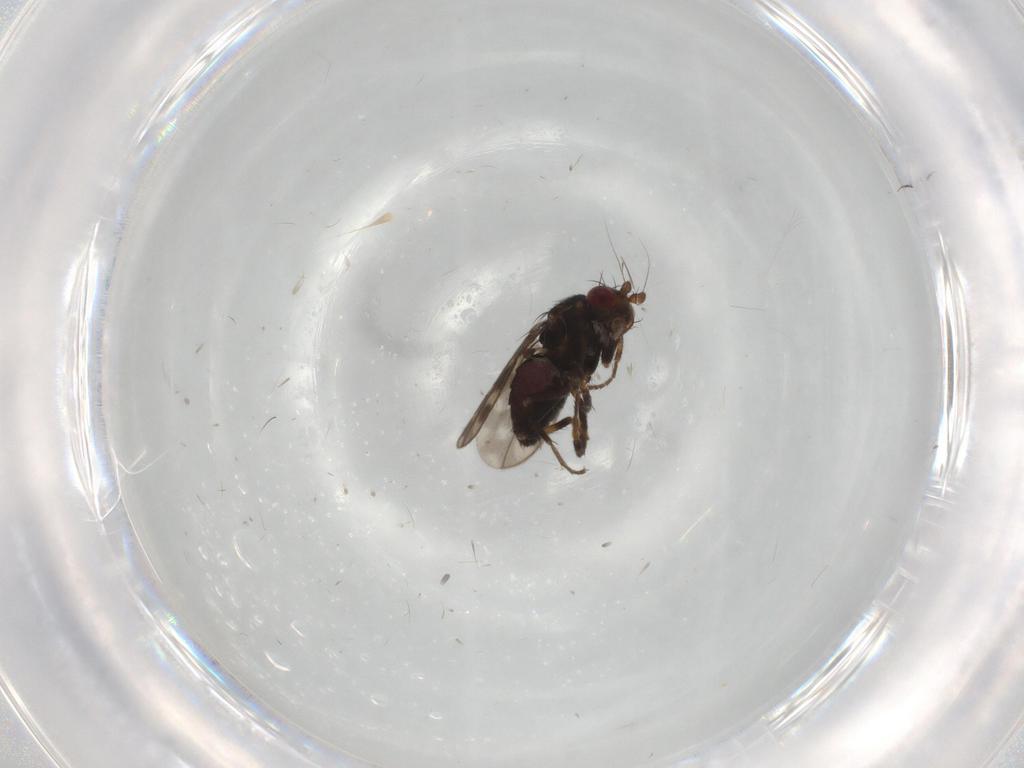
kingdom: Animalia
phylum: Arthropoda
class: Insecta
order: Diptera
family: Sphaeroceridae
